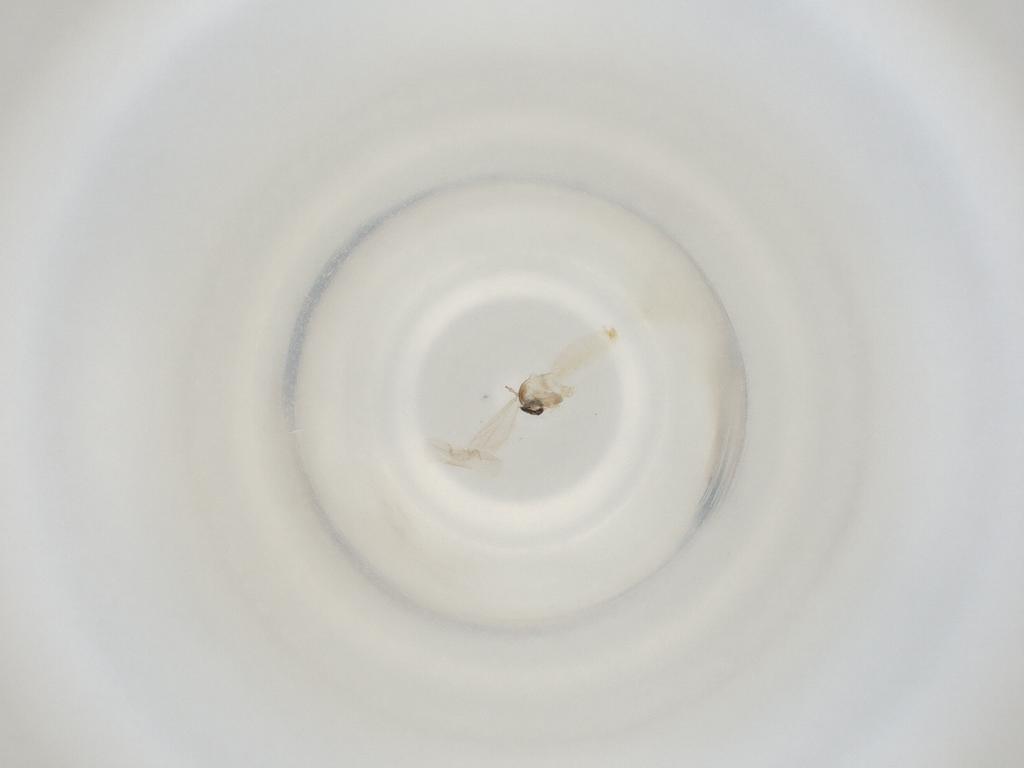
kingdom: Animalia
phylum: Arthropoda
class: Insecta
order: Diptera
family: Cecidomyiidae
